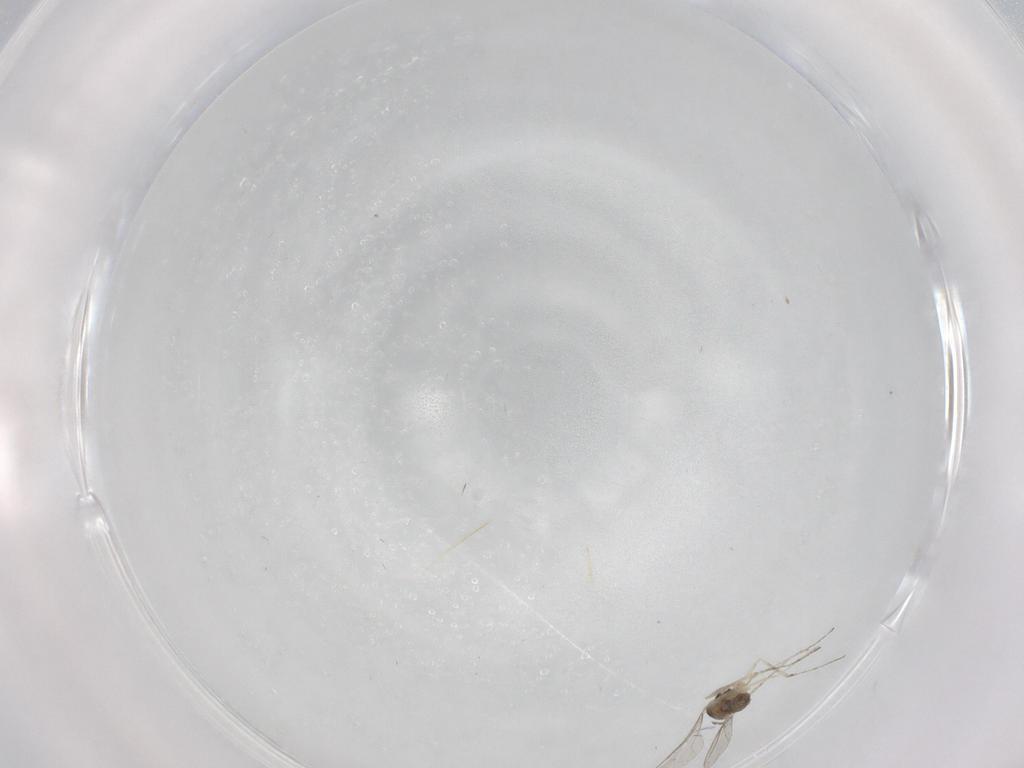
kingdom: Animalia
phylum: Arthropoda
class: Insecta
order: Diptera
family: Cecidomyiidae
